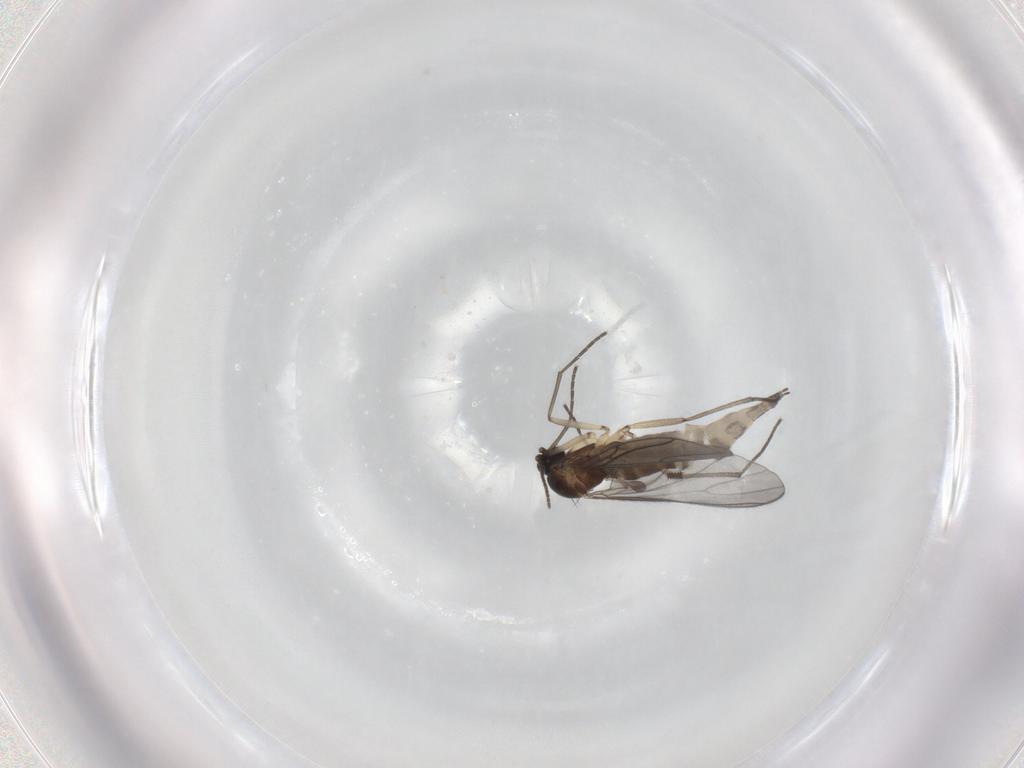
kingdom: Animalia
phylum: Arthropoda
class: Insecta
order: Diptera
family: Sciaridae
